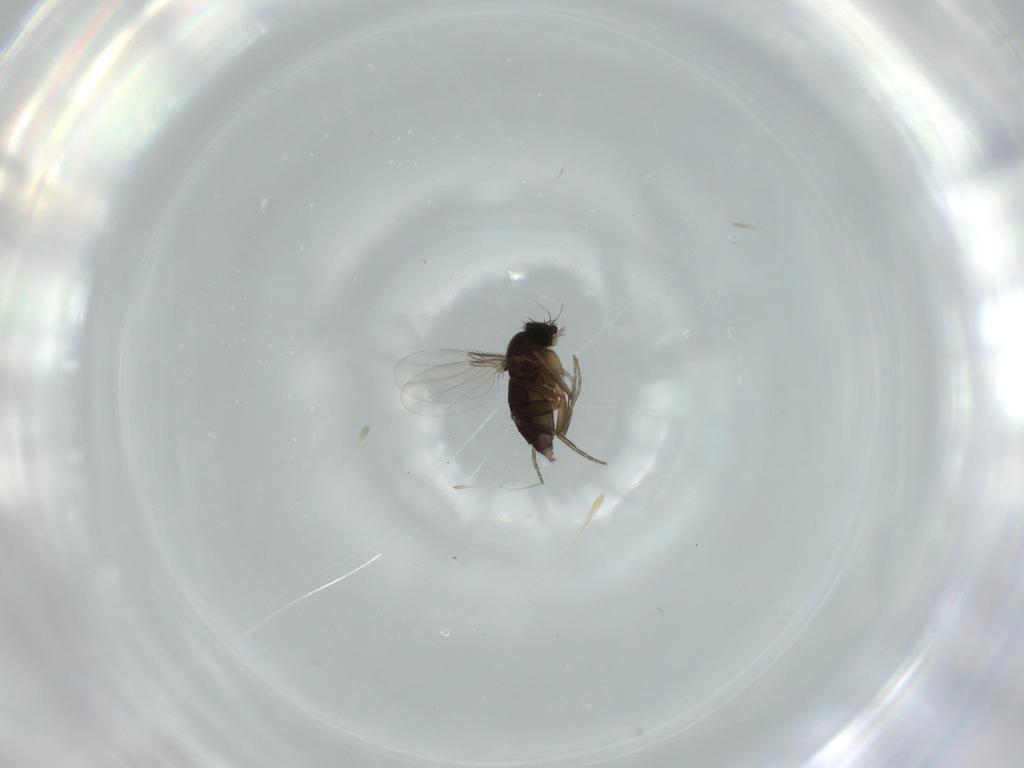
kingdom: Animalia
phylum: Arthropoda
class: Insecta
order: Diptera
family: Phoridae
